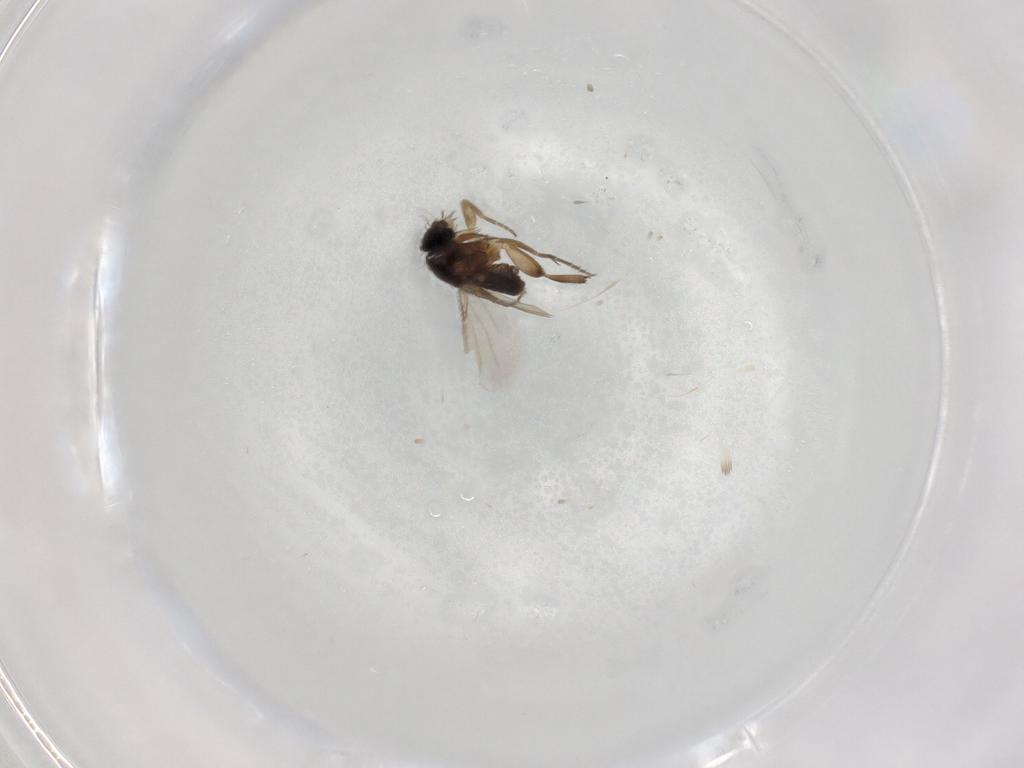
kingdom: Animalia
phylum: Arthropoda
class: Insecta
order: Diptera
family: Phoridae
